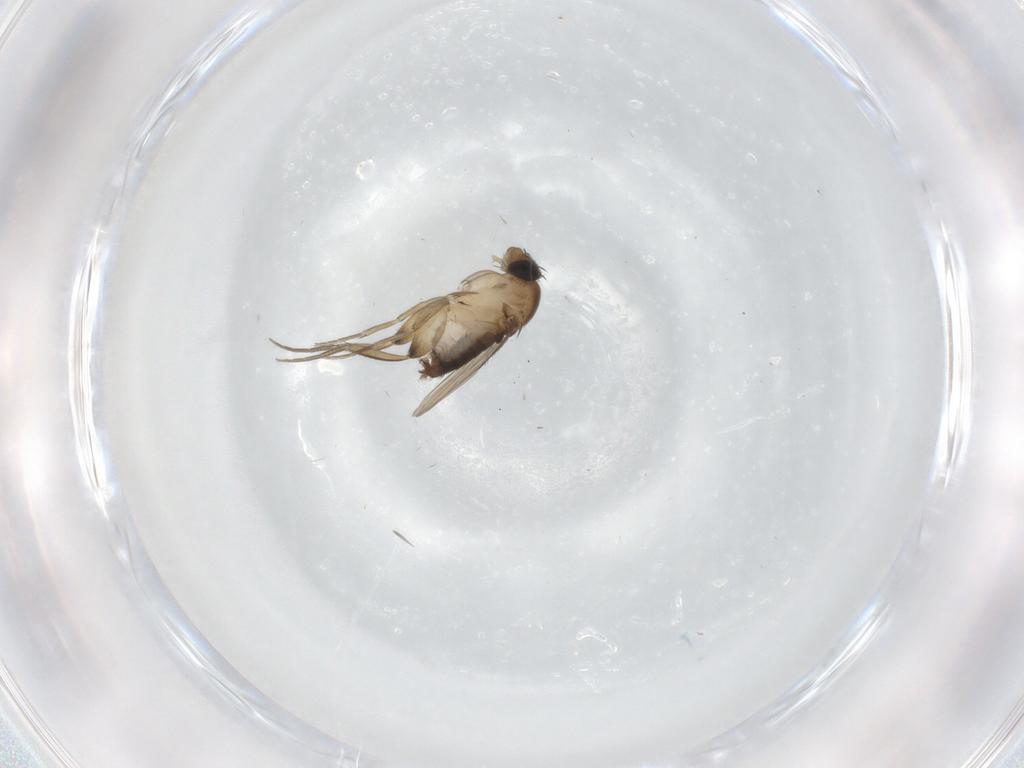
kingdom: Animalia
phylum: Arthropoda
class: Insecta
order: Diptera
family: Phoridae
